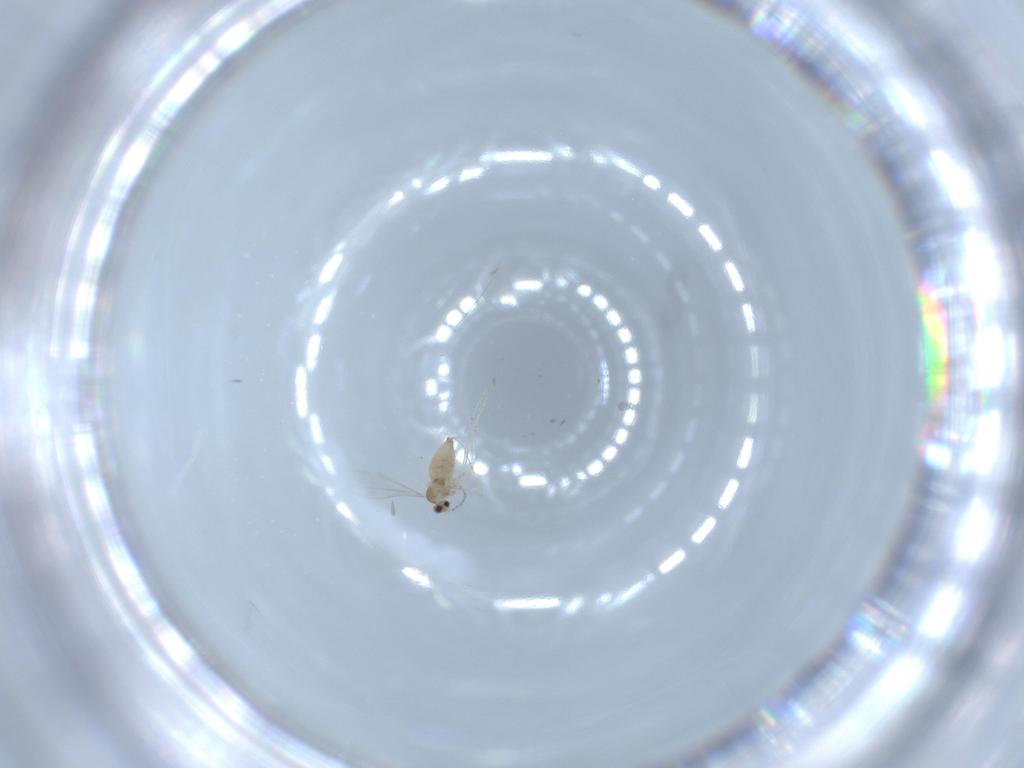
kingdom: Animalia
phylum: Arthropoda
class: Insecta
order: Diptera
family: Cecidomyiidae
